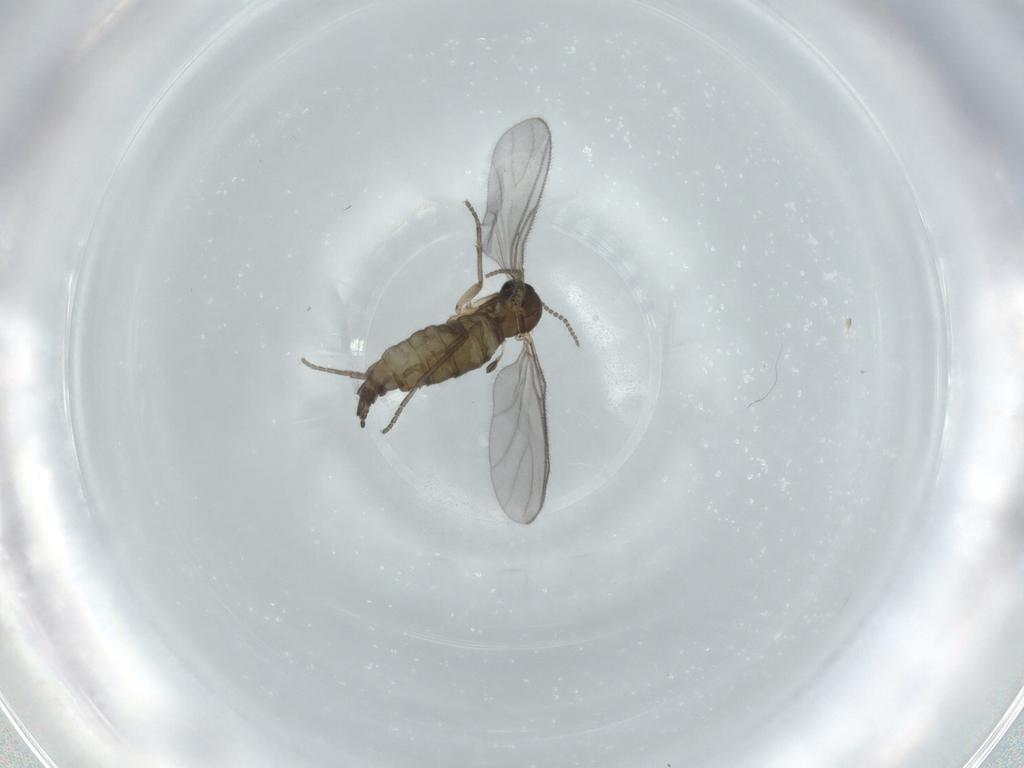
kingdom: Animalia
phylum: Arthropoda
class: Insecta
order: Diptera
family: Sciaridae
